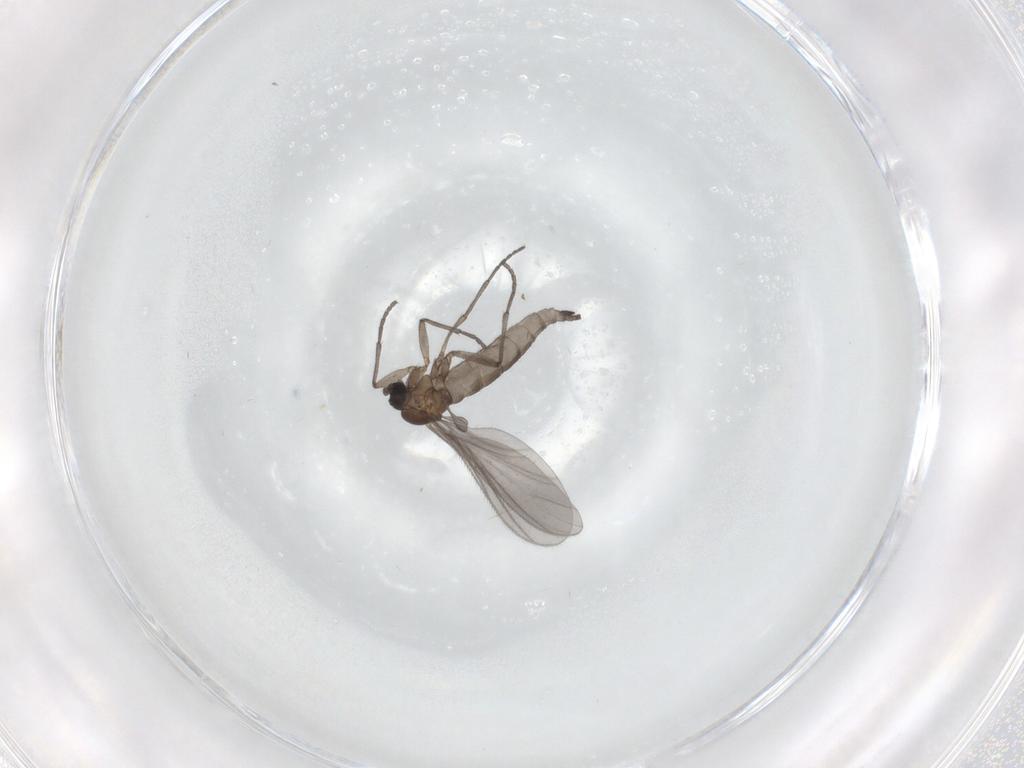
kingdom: Animalia
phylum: Arthropoda
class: Insecta
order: Diptera
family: Sciaridae
